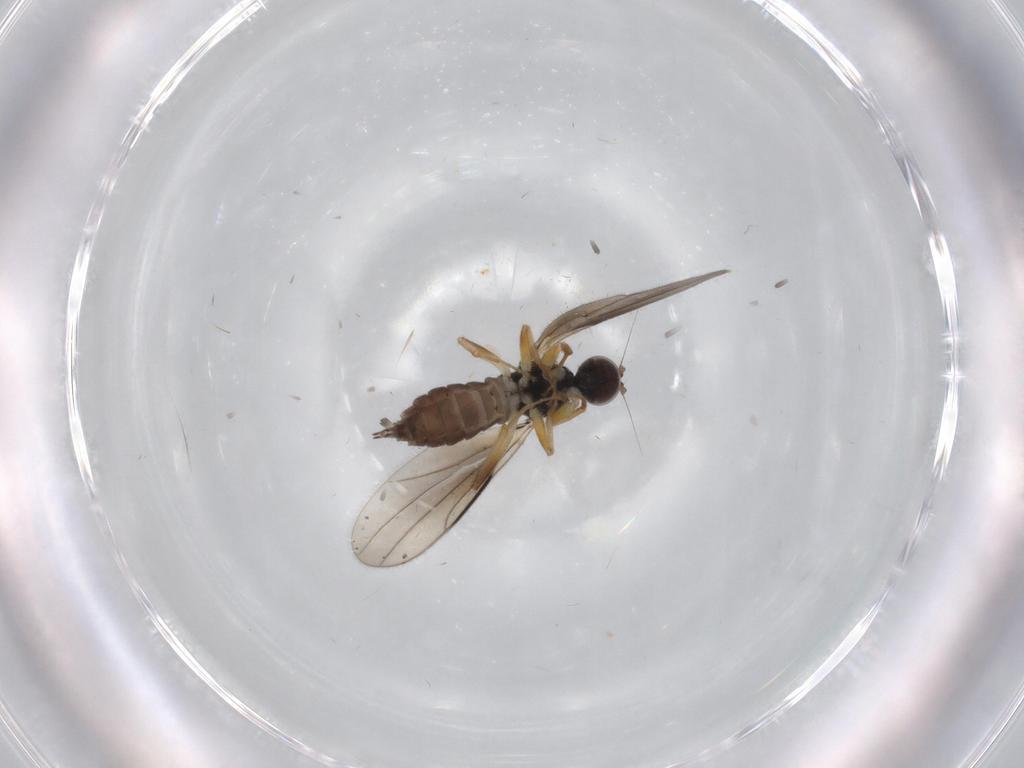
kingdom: Animalia
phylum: Arthropoda
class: Insecta
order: Diptera
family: Hybotidae
